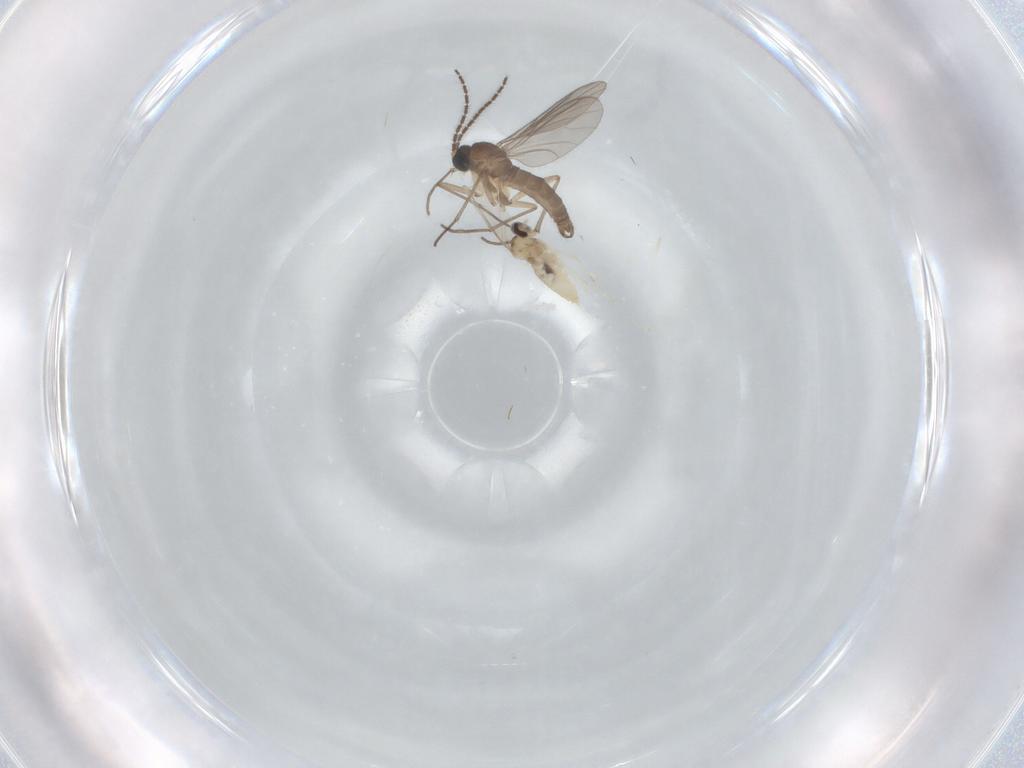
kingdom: Animalia
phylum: Arthropoda
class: Insecta
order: Diptera
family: Cecidomyiidae
